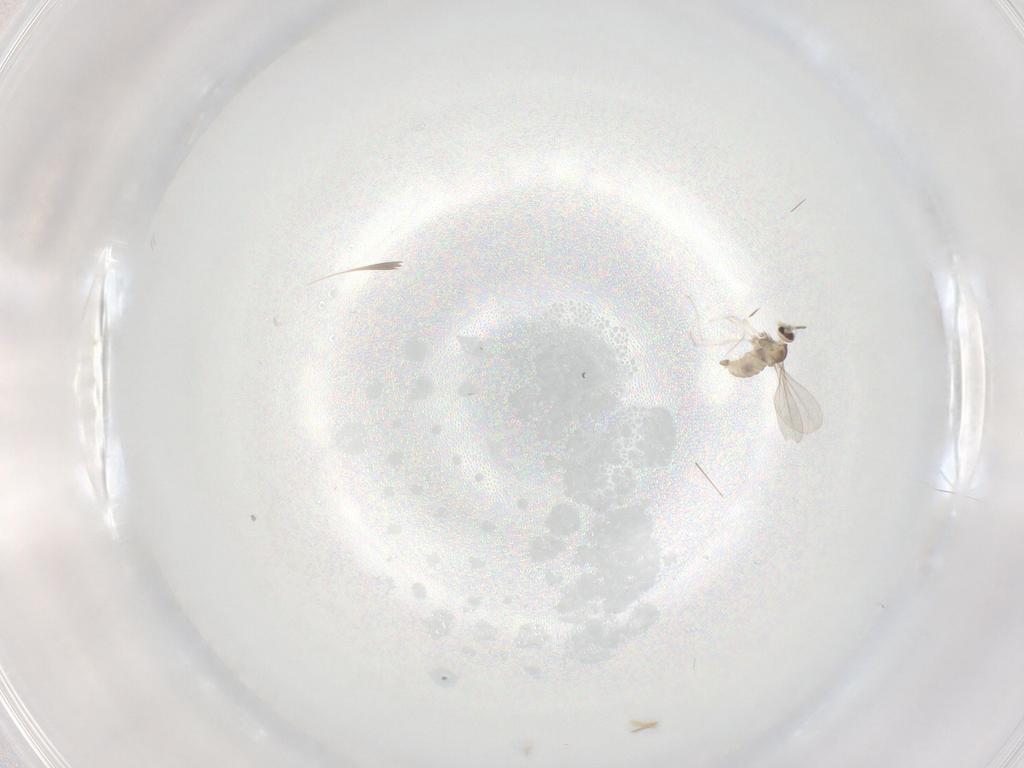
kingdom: Animalia
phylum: Arthropoda
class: Insecta
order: Diptera
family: Cecidomyiidae
